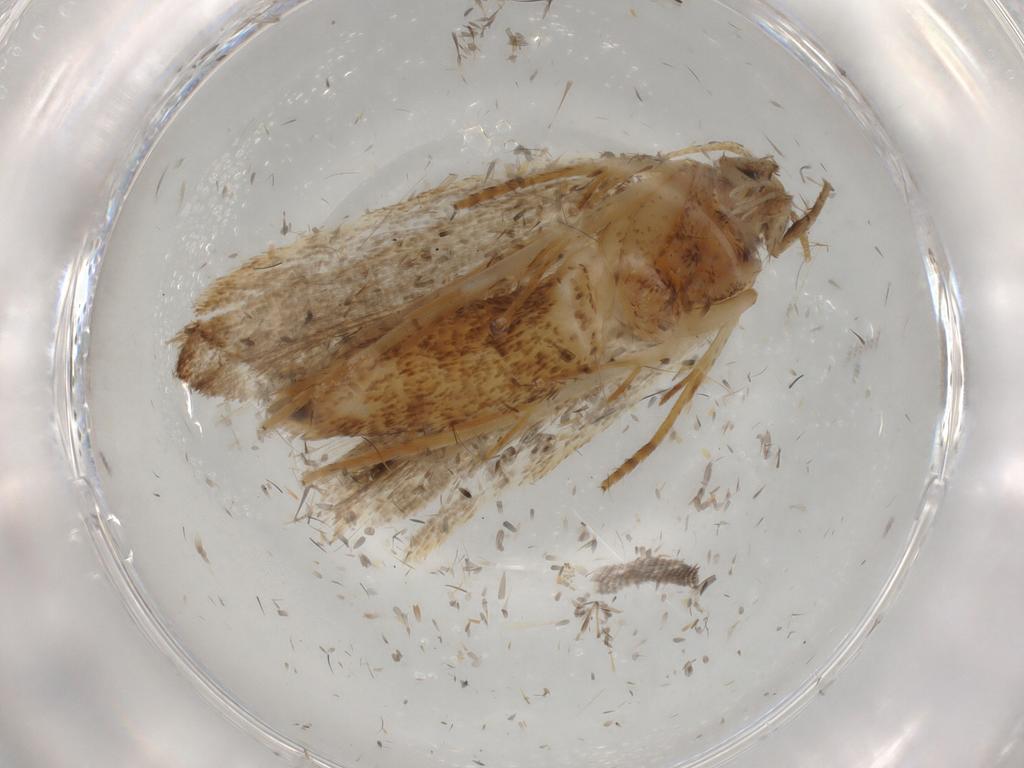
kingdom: Animalia
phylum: Arthropoda
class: Insecta
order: Lepidoptera
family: Autostichidae
